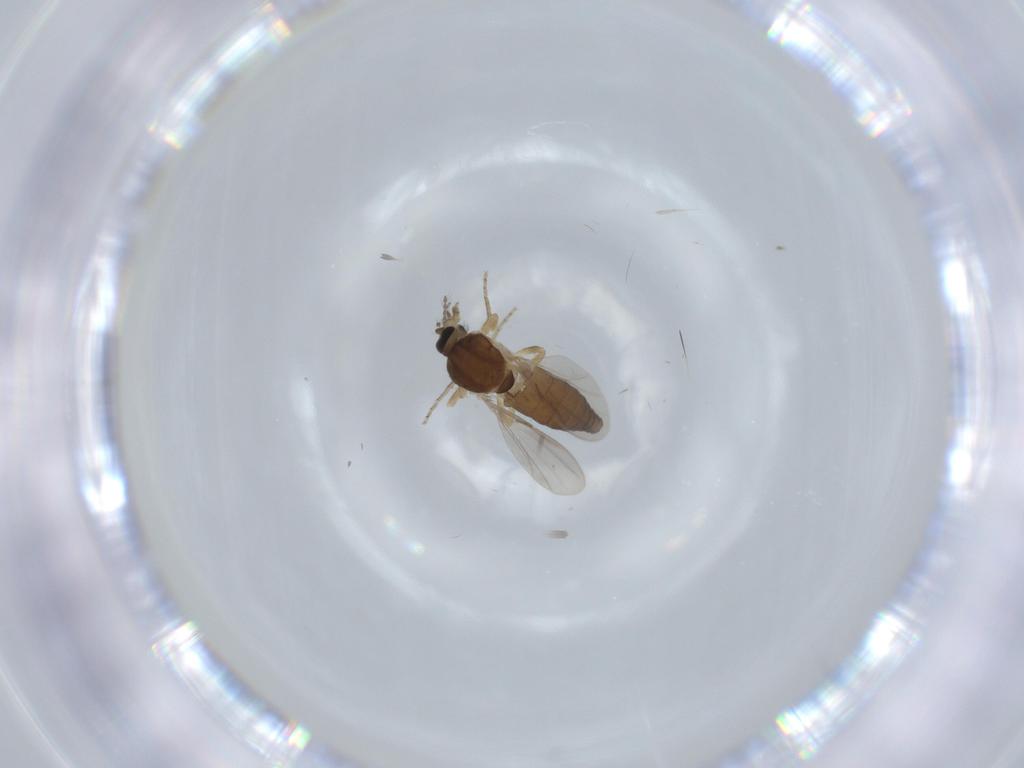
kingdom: Animalia
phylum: Arthropoda
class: Insecta
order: Diptera
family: Ceratopogonidae
